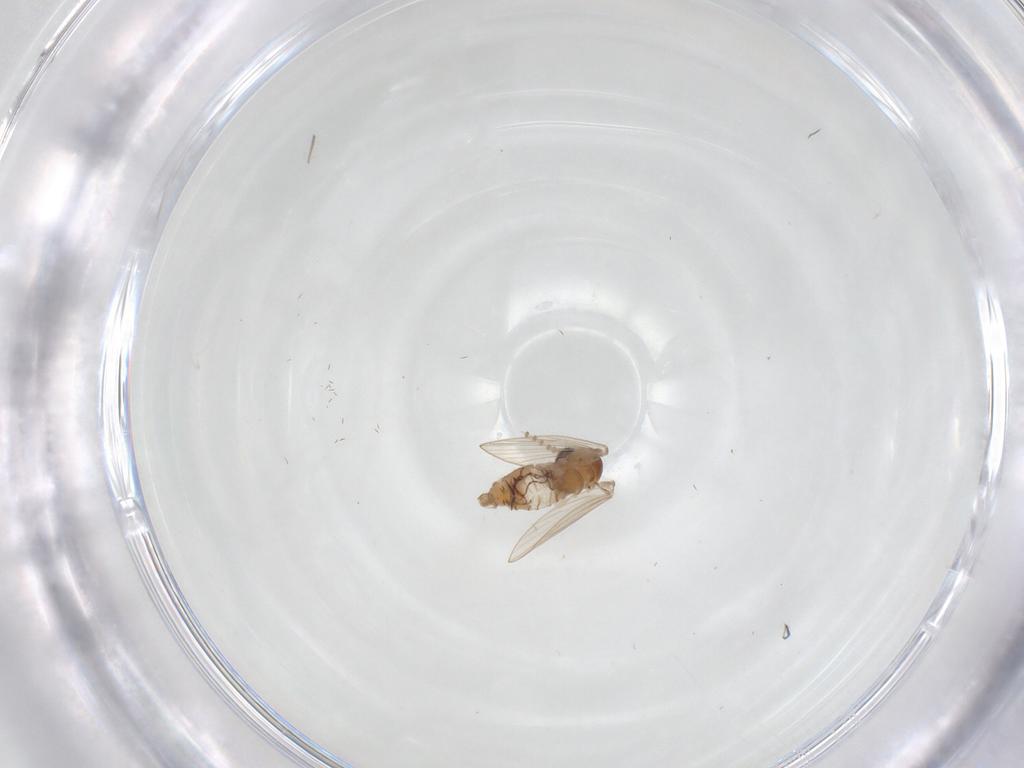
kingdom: Animalia
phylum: Arthropoda
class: Insecta
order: Diptera
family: Psychodidae
